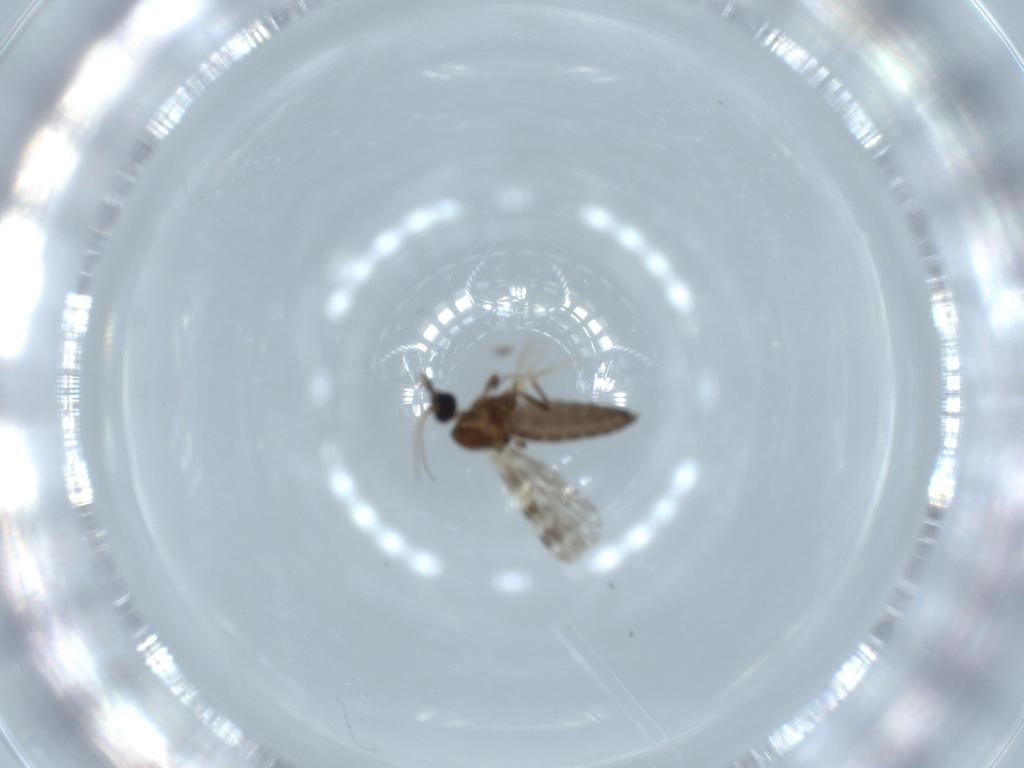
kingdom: Animalia
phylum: Arthropoda
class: Insecta
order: Diptera
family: Ceratopogonidae
